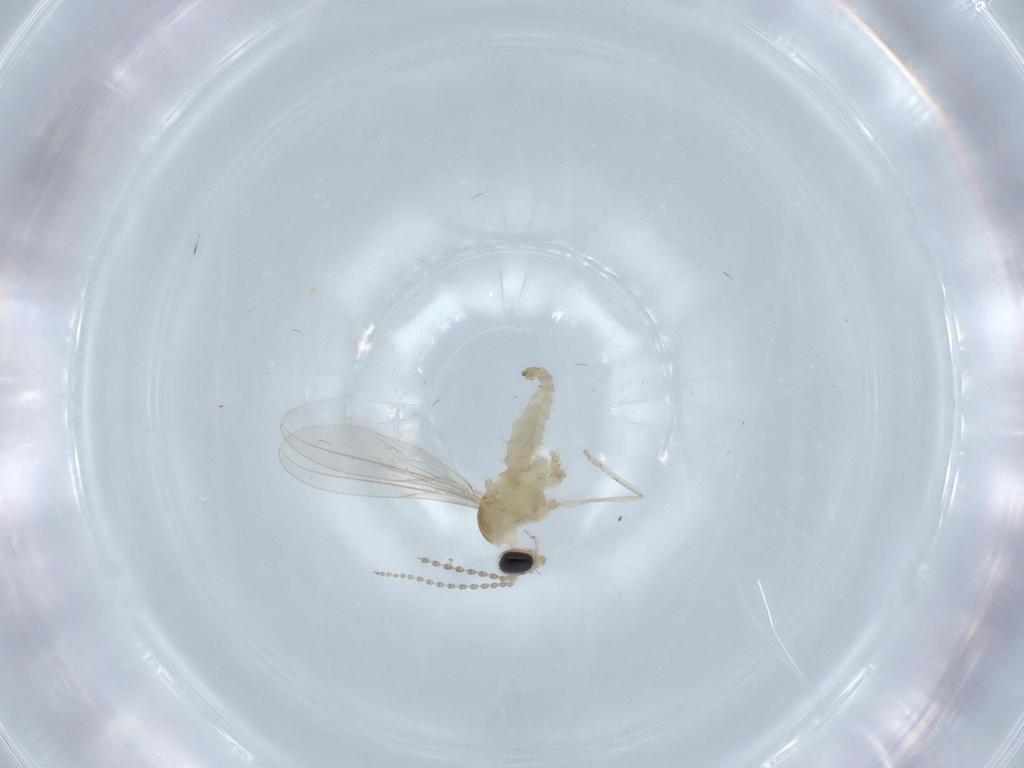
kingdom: Animalia
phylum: Arthropoda
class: Insecta
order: Diptera
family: Cecidomyiidae
